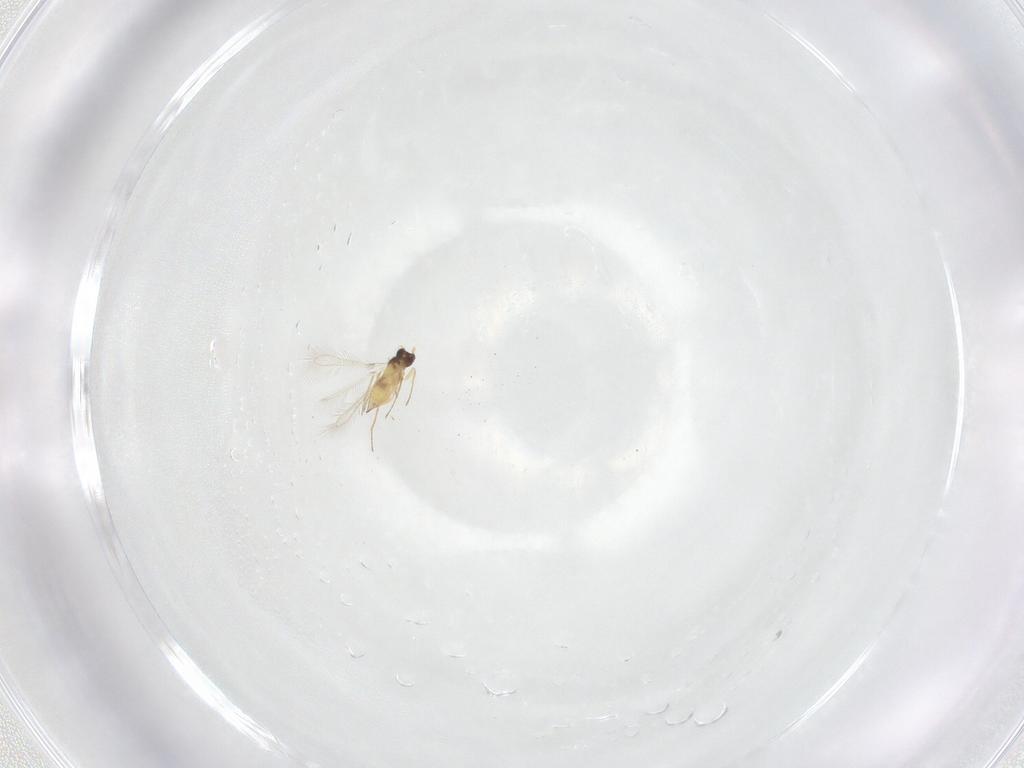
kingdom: Animalia
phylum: Arthropoda
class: Insecta
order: Hymenoptera
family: Mymaridae
